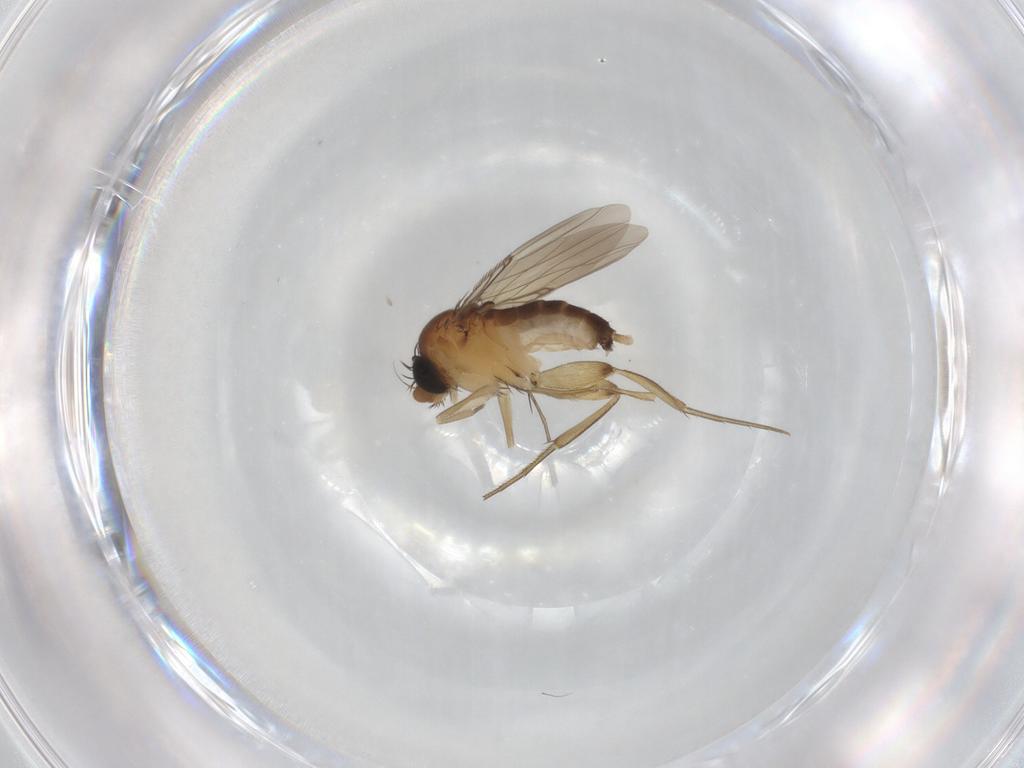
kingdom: Animalia
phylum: Arthropoda
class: Insecta
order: Diptera
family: Phoridae
